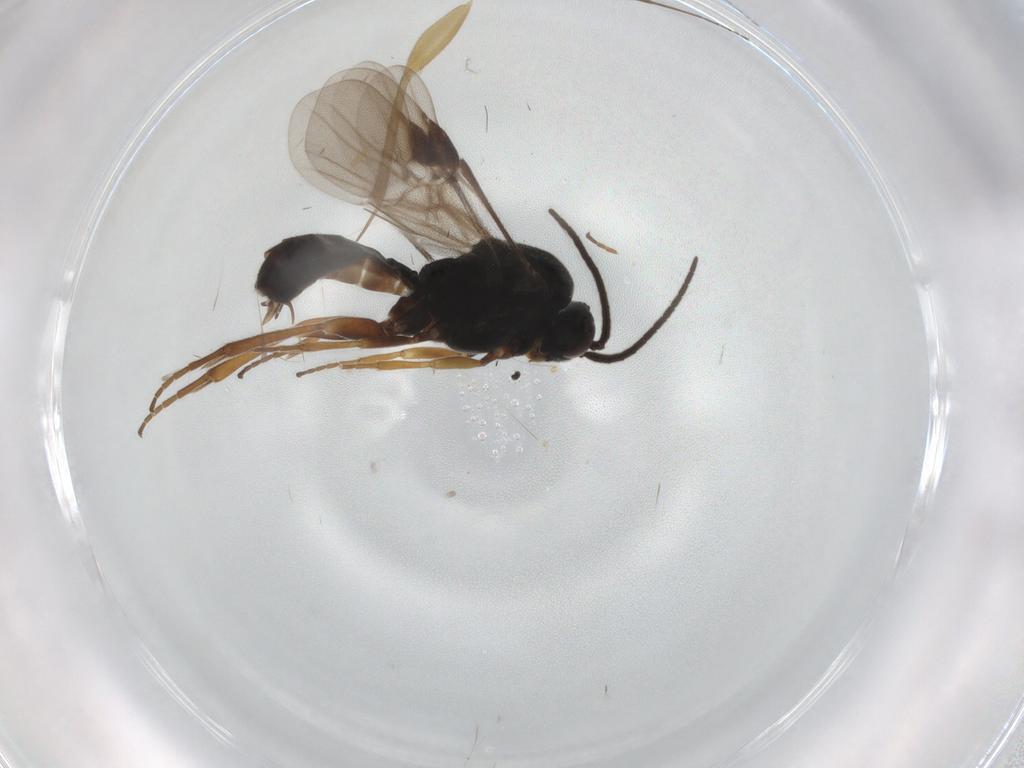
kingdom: Animalia
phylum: Arthropoda
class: Insecta
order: Hymenoptera
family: Braconidae
